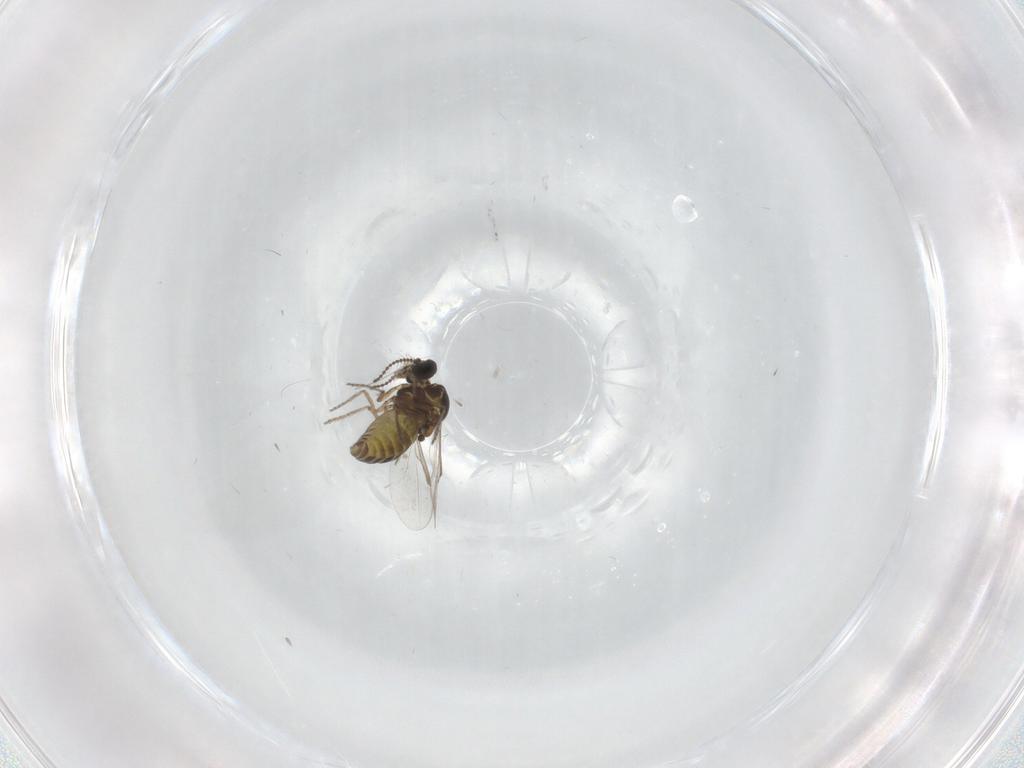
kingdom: Animalia
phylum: Arthropoda
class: Insecta
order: Diptera
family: Ceratopogonidae
